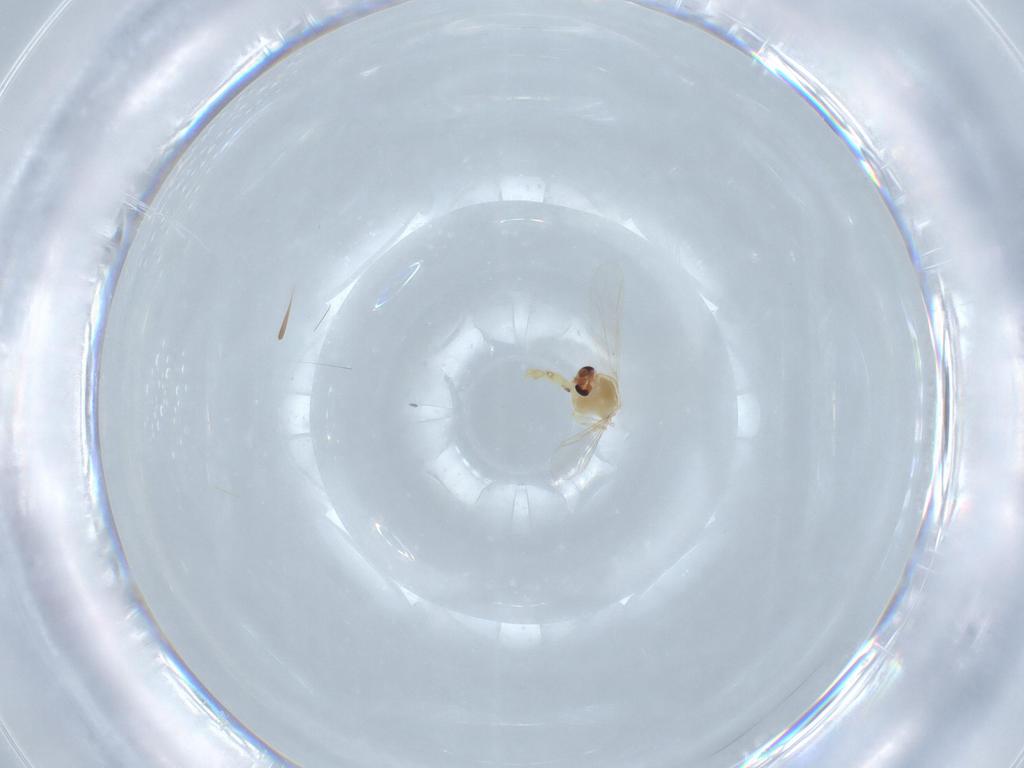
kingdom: Animalia
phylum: Arthropoda
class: Insecta
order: Diptera
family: Chironomidae
